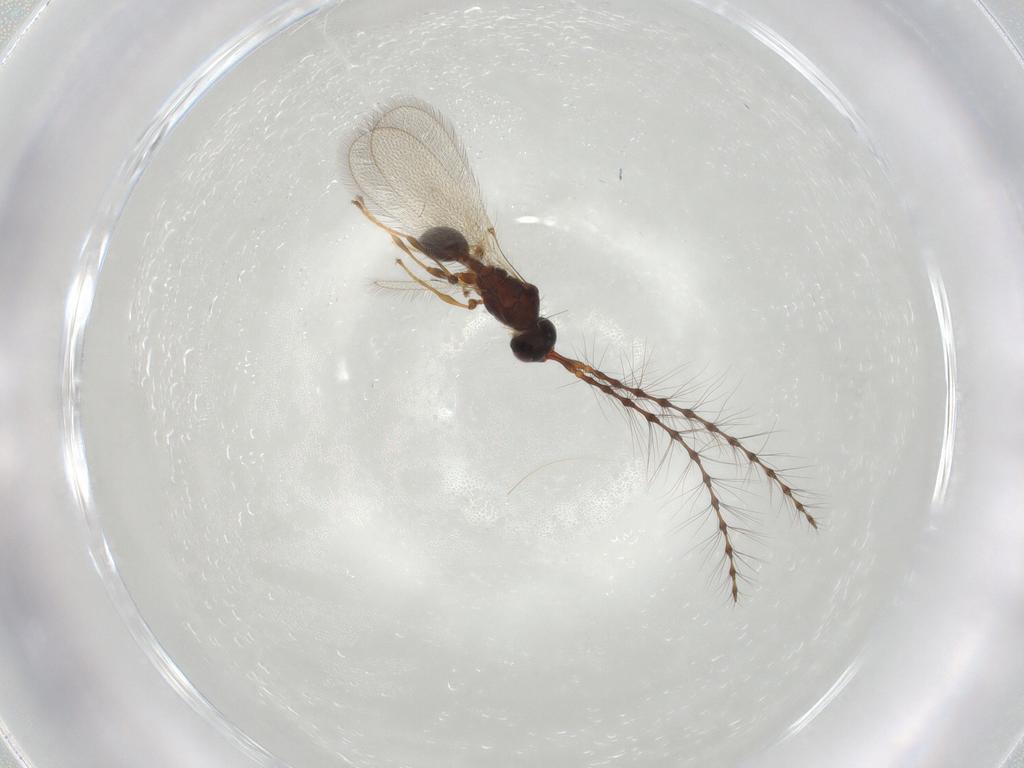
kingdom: Animalia
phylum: Arthropoda
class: Insecta
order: Hymenoptera
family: Diapriidae
